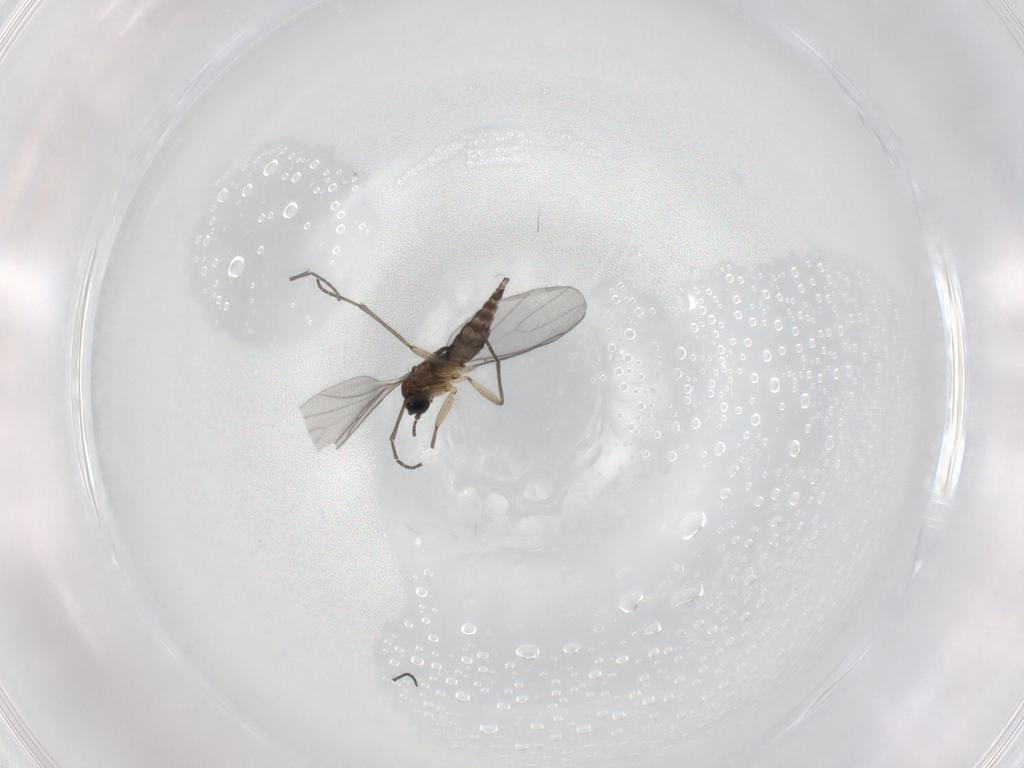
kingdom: Animalia
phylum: Arthropoda
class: Insecta
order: Diptera
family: Sciaridae
